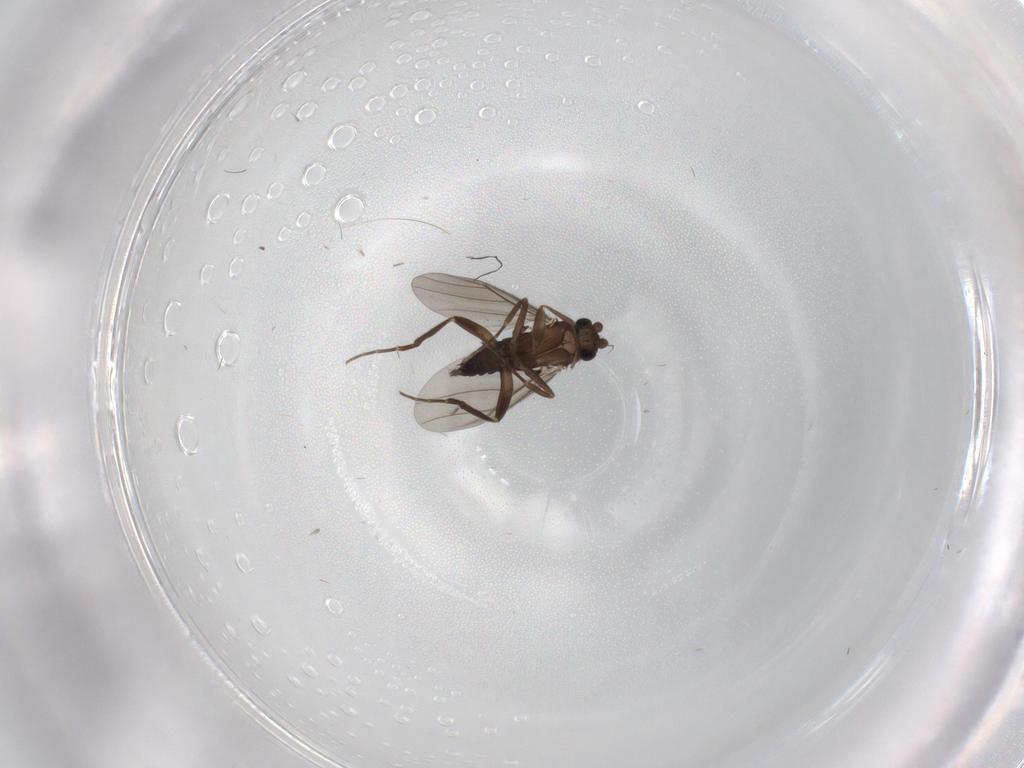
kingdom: Animalia
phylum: Arthropoda
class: Insecta
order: Diptera
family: Chironomidae
